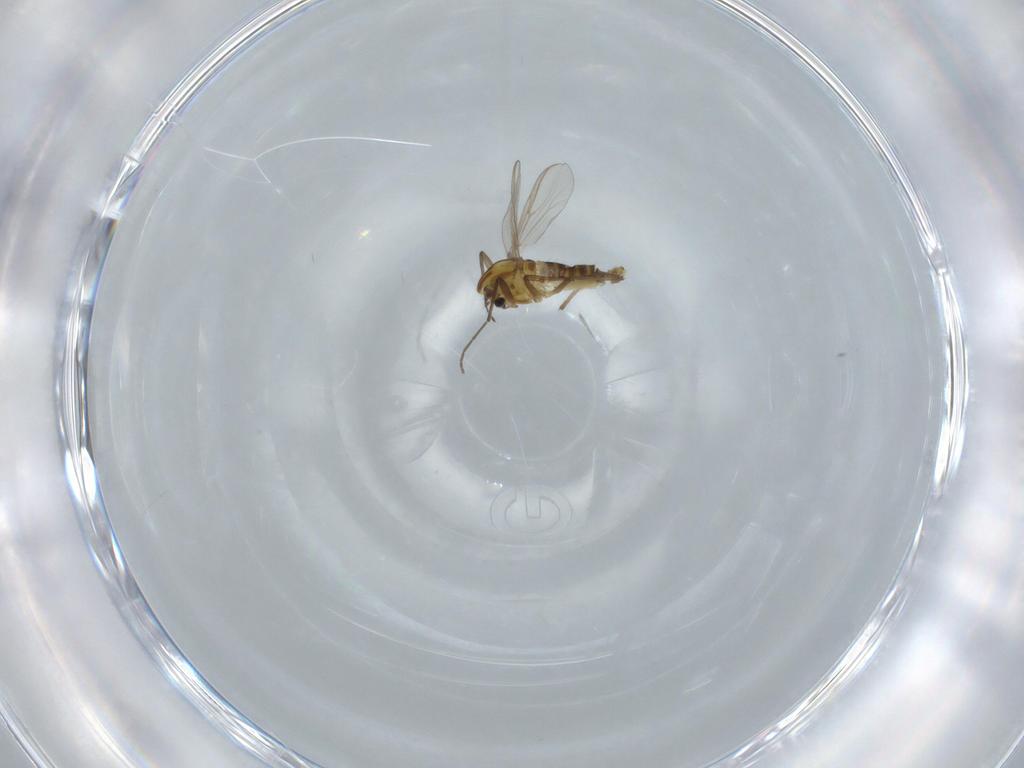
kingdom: Animalia
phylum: Arthropoda
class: Insecta
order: Diptera
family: Chironomidae
